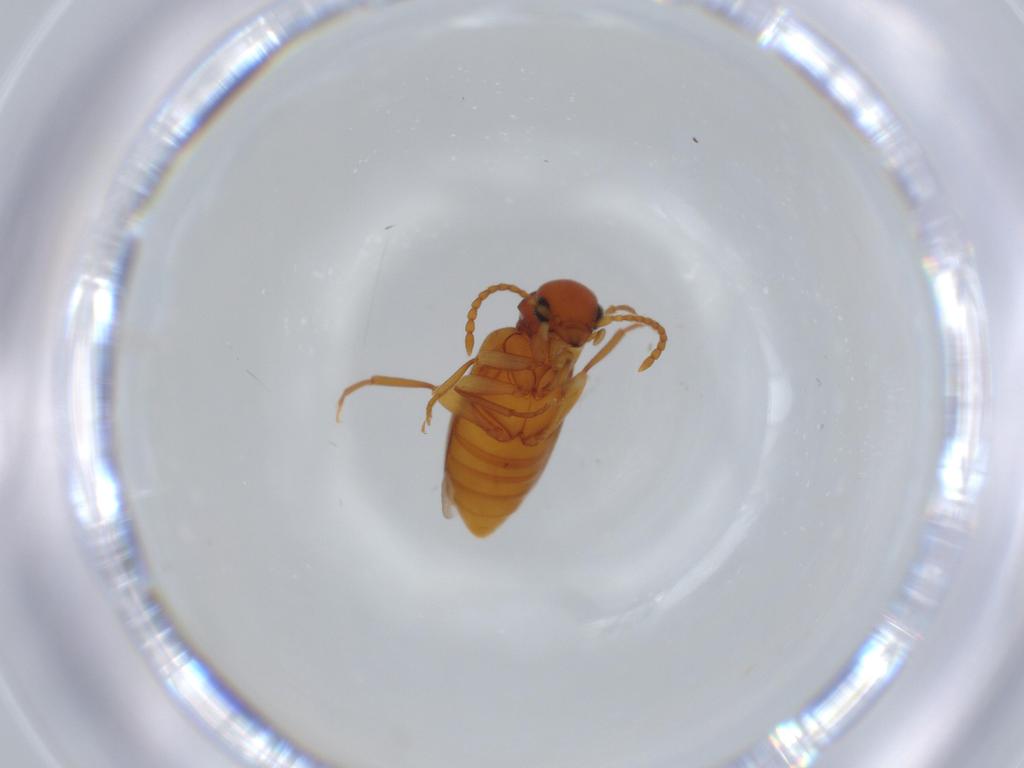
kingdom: Animalia
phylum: Arthropoda
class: Insecta
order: Coleoptera
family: Anthicidae
